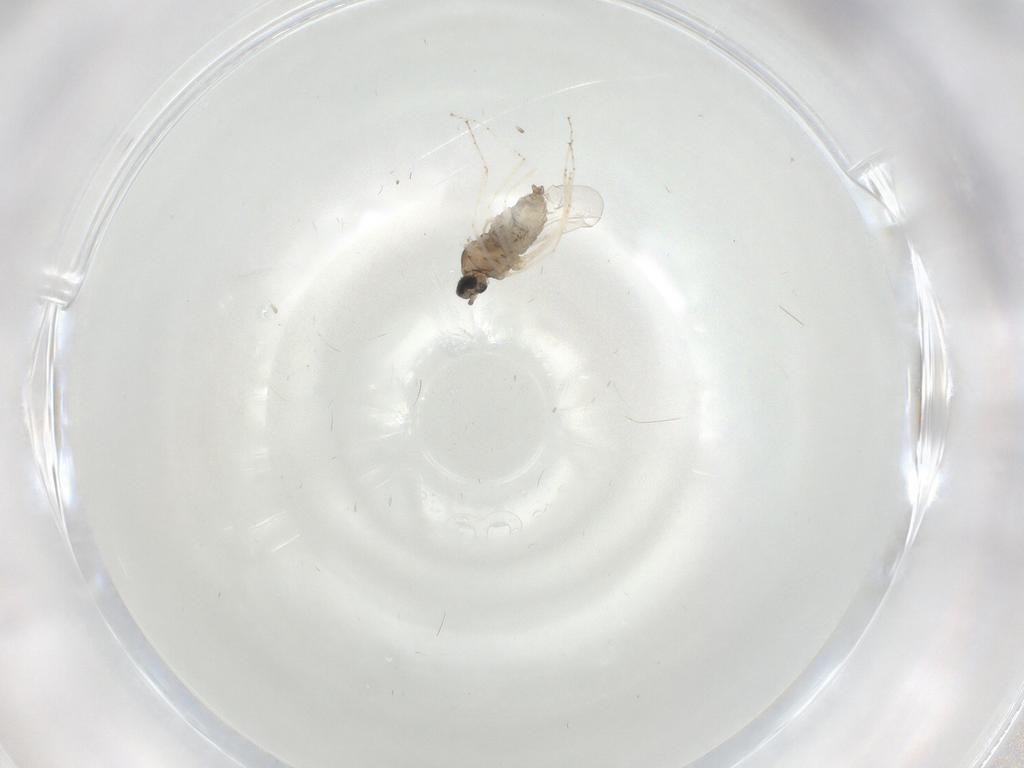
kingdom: Animalia
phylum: Arthropoda
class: Insecta
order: Diptera
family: Cecidomyiidae
